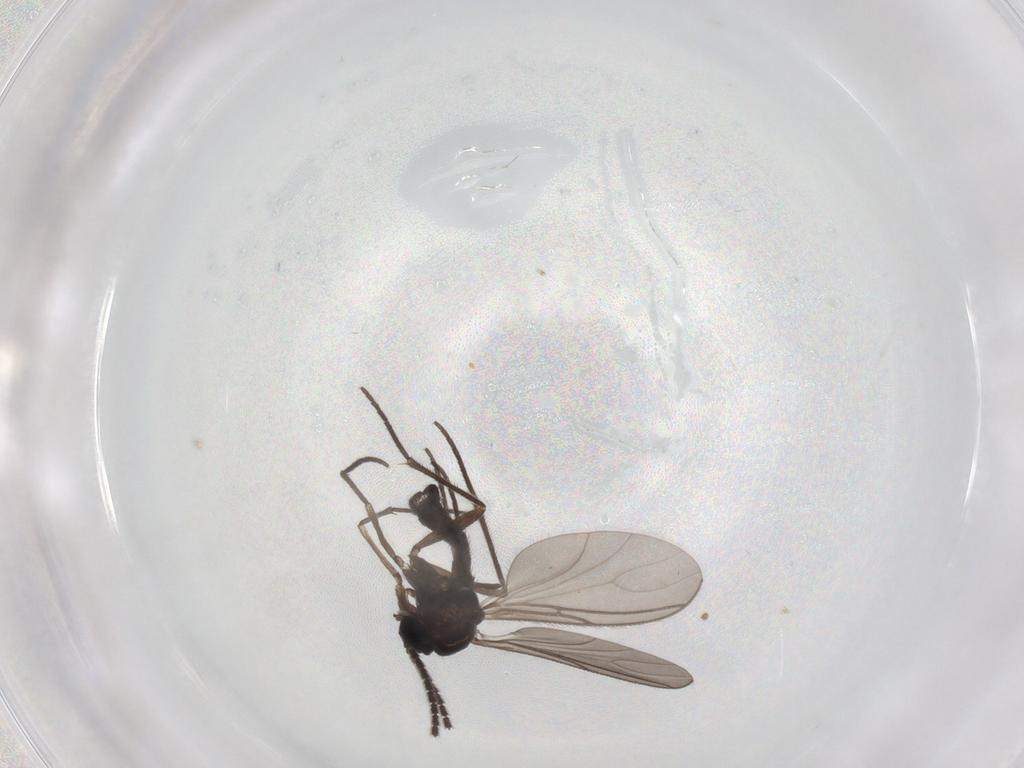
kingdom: Animalia
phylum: Arthropoda
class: Insecta
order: Diptera
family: Sciaridae
